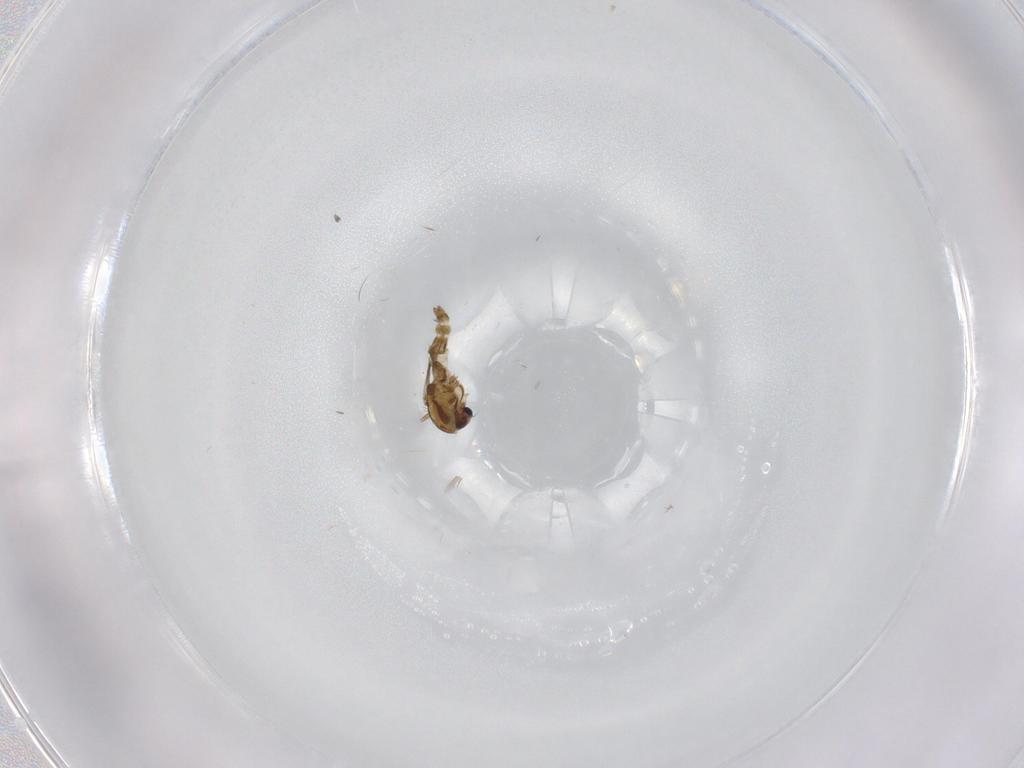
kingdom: Animalia
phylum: Arthropoda
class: Insecta
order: Diptera
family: Chironomidae
